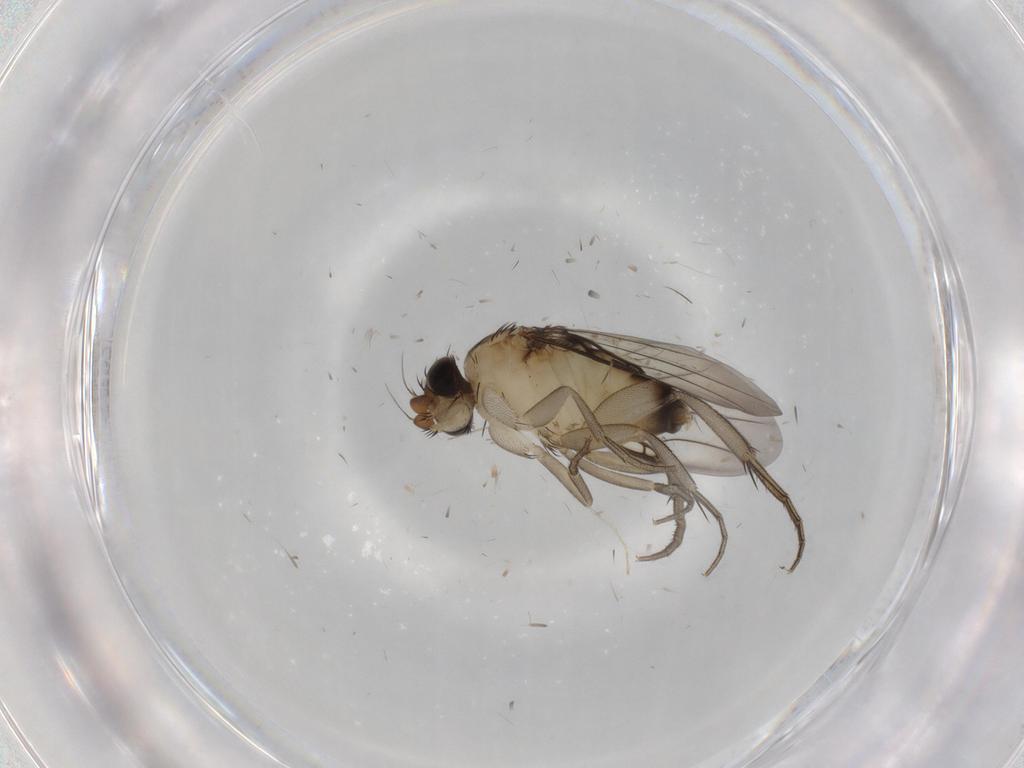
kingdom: Animalia
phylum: Arthropoda
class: Insecta
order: Diptera
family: Phoridae
